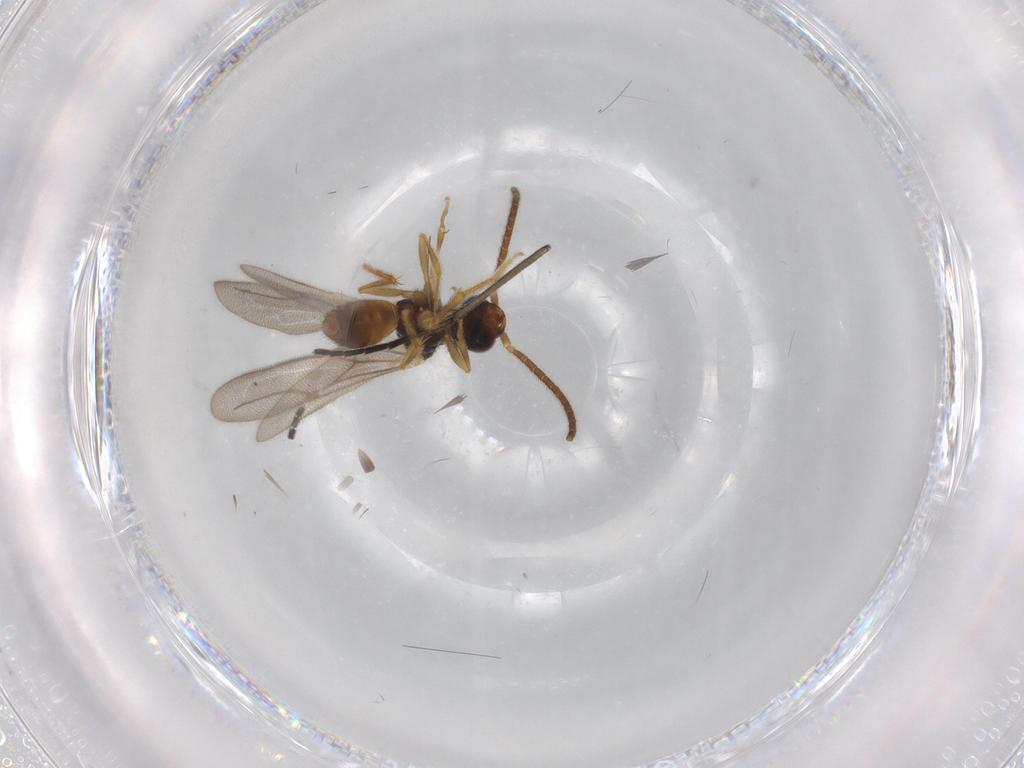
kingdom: Animalia
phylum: Arthropoda
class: Insecta
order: Hymenoptera
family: Bethylidae
